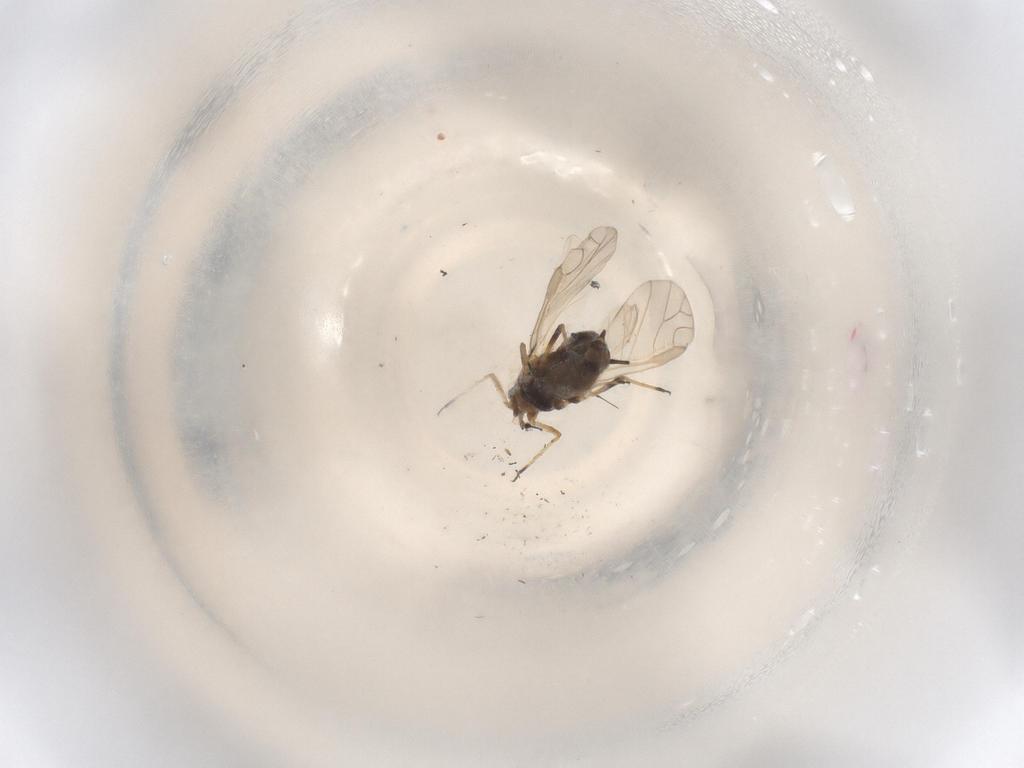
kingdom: Animalia
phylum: Arthropoda
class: Insecta
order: Hemiptera
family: Aphididae
